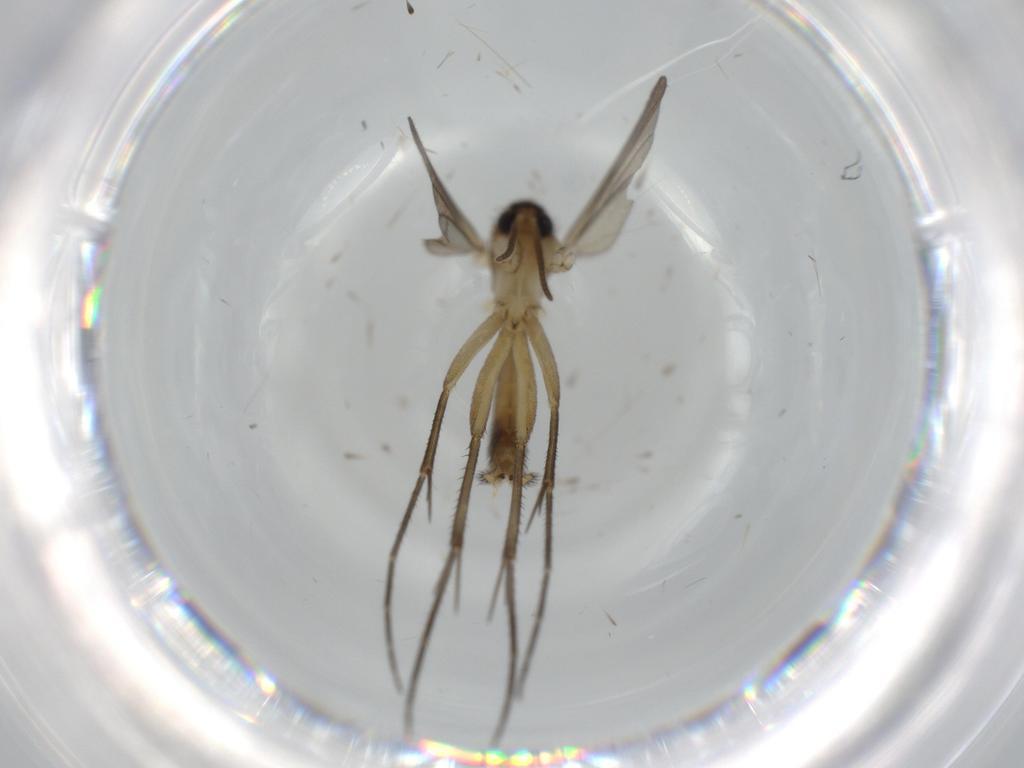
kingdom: Animalia
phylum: Arthropoda
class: Insecta
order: Diptera
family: Mycetophilidae
